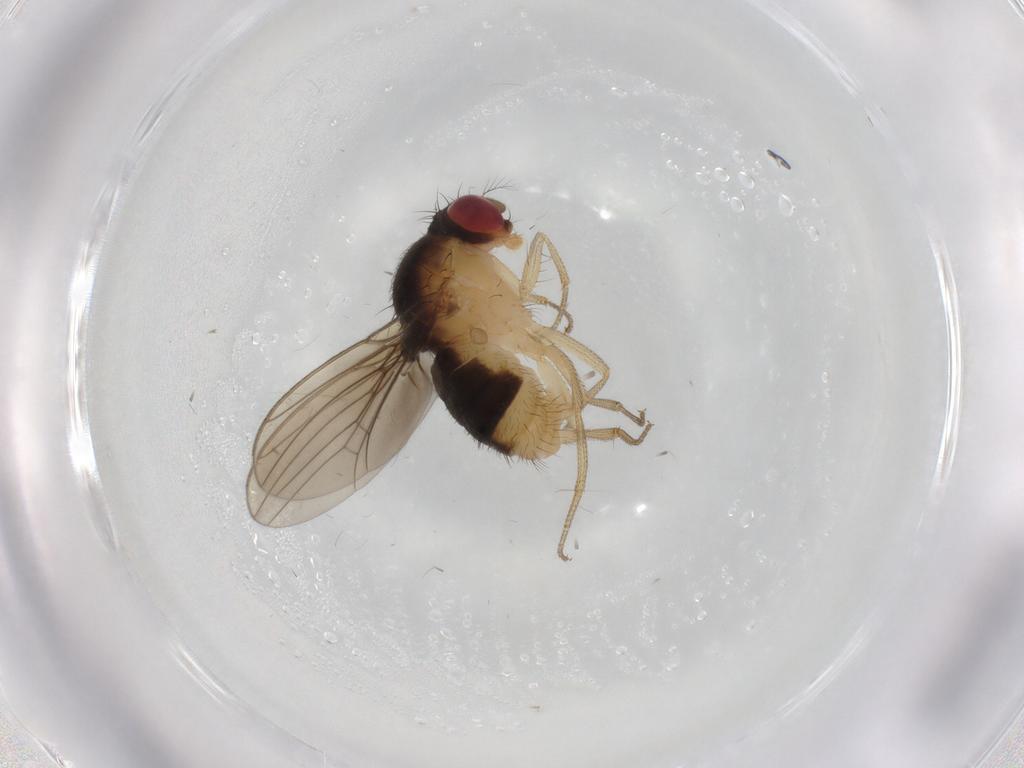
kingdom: Animalia
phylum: Arthropoda
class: Insecta
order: Diptera
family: Drosophilidae
